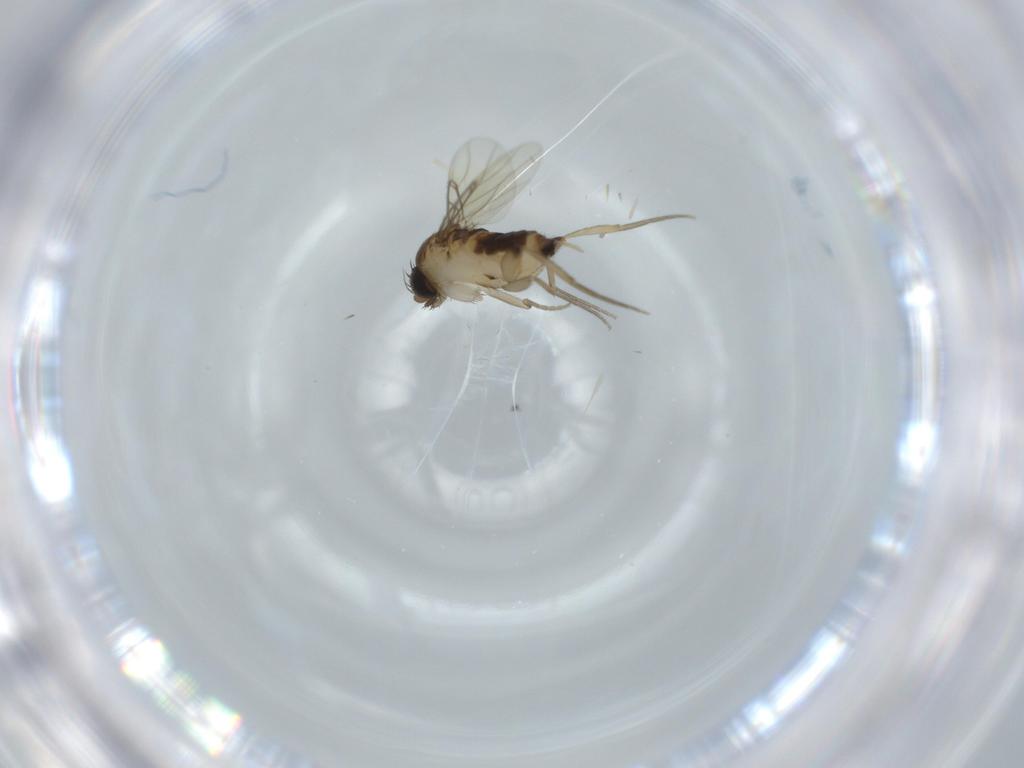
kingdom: Animalia
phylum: Arthropoda
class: Insecta
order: Diptera
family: Phoridae
